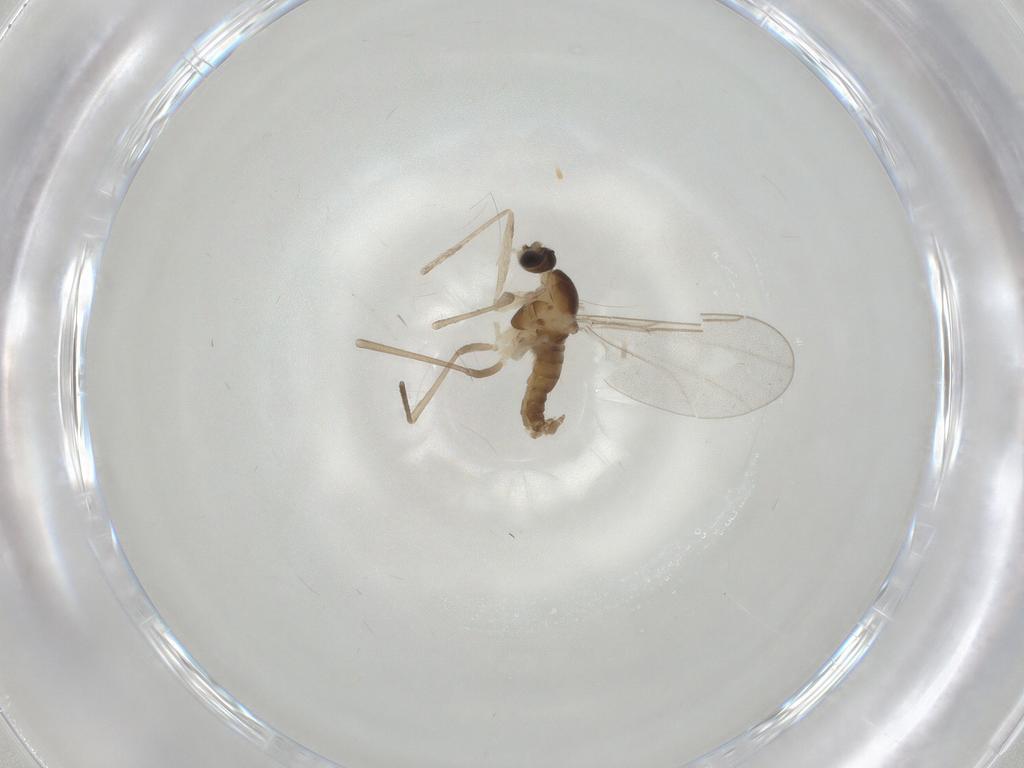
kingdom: Animalia
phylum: Arthropoda
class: Insecta
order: Diptera
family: Cecidomyiidae
